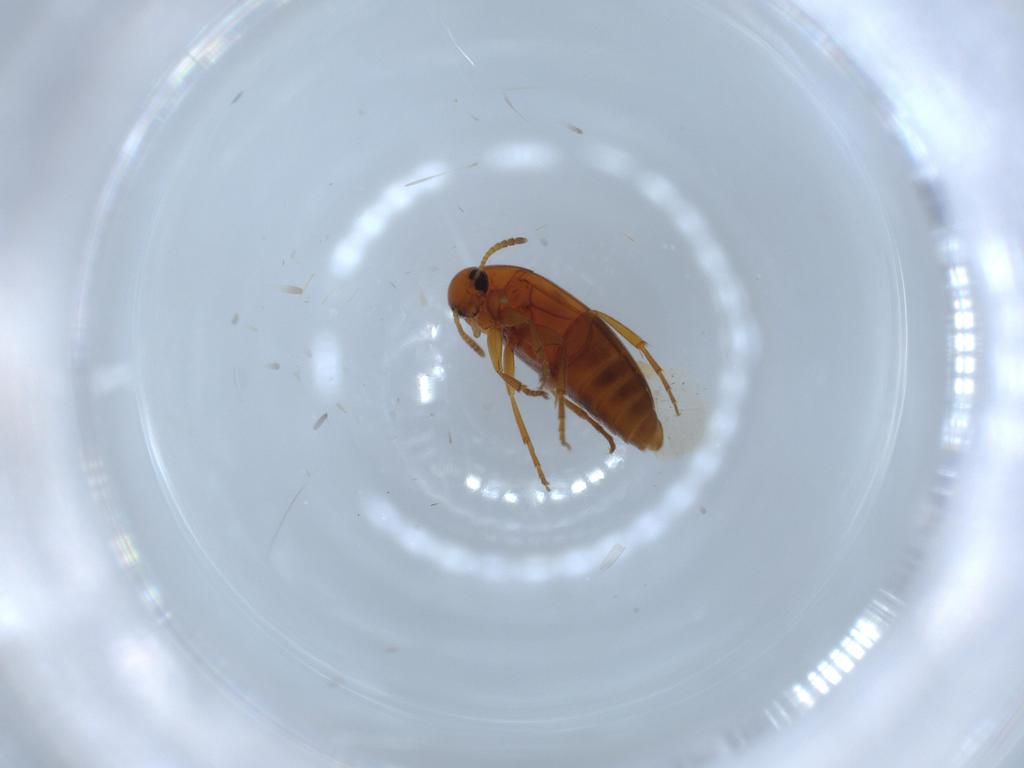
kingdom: Animalia
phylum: Arthropoda
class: Insecta
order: Coleoptera
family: Scraptiidae
